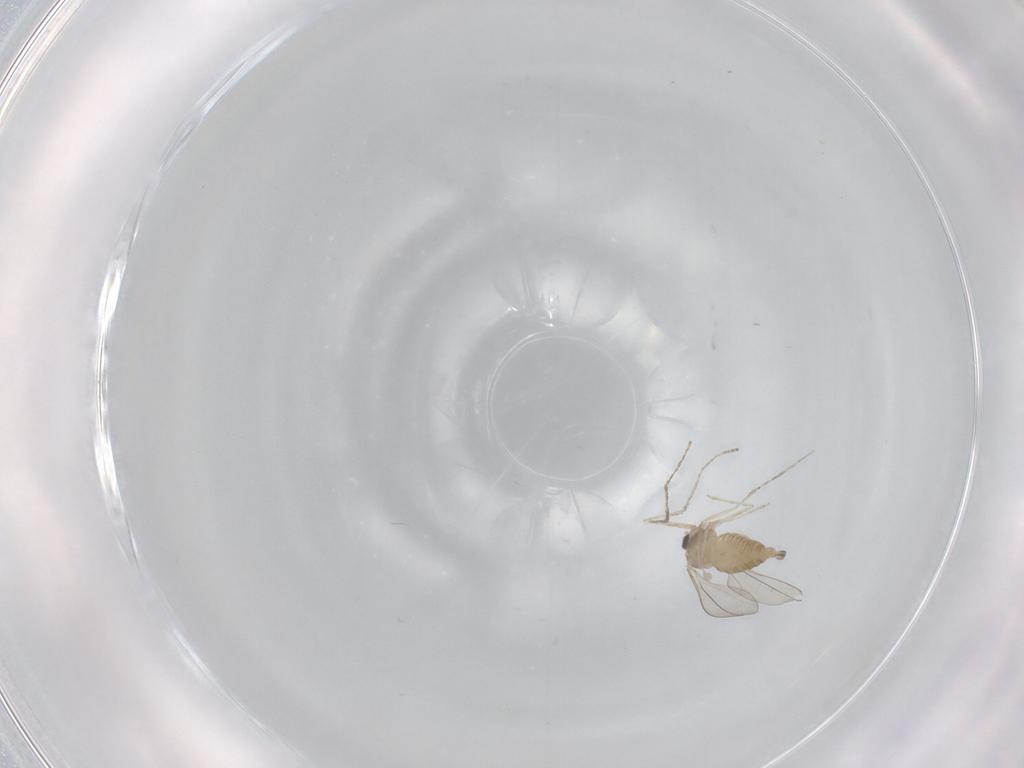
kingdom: Animalia
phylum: Arthropoda
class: Insecta
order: Diptera
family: Cecidomyiidae
